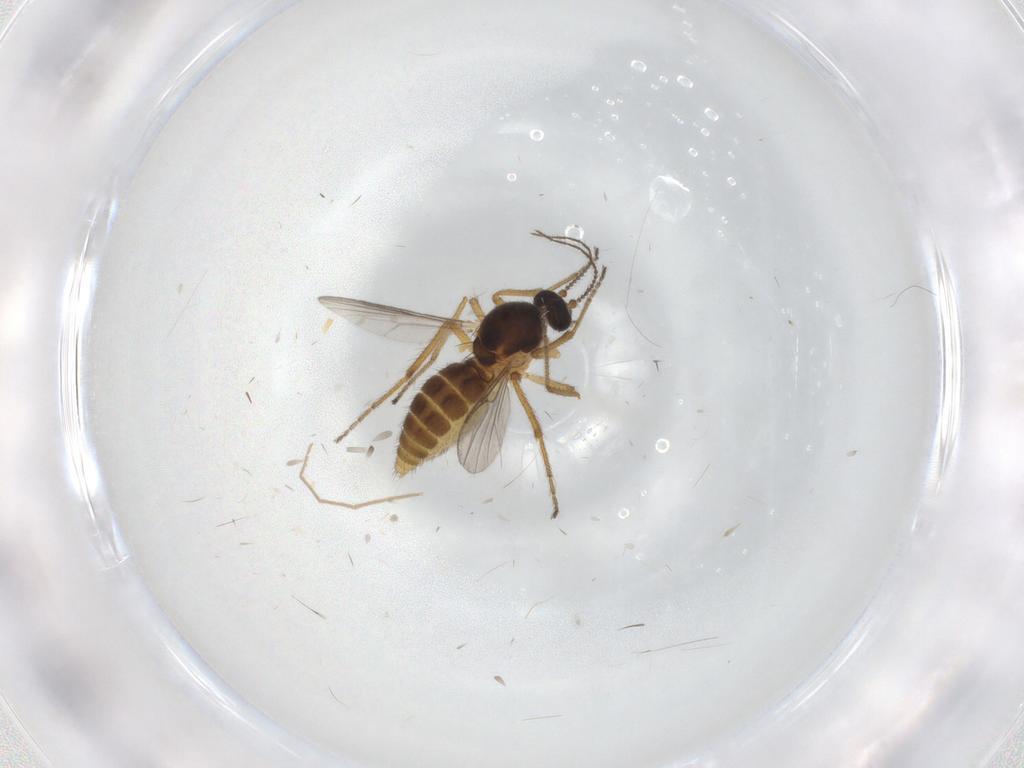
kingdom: Animalia
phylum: Arthropoda
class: Insecta
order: Diptera
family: Ceratopogonidae
